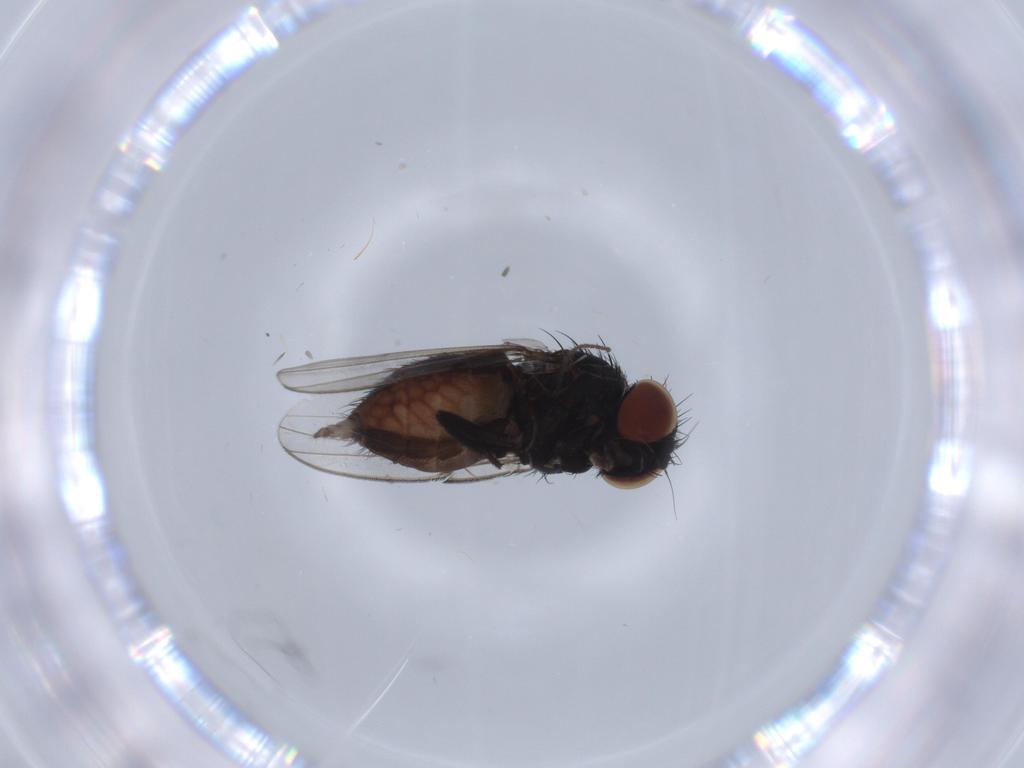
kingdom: Animalia
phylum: Arthropoda
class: Insecta
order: Diptera
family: Milichiidae
